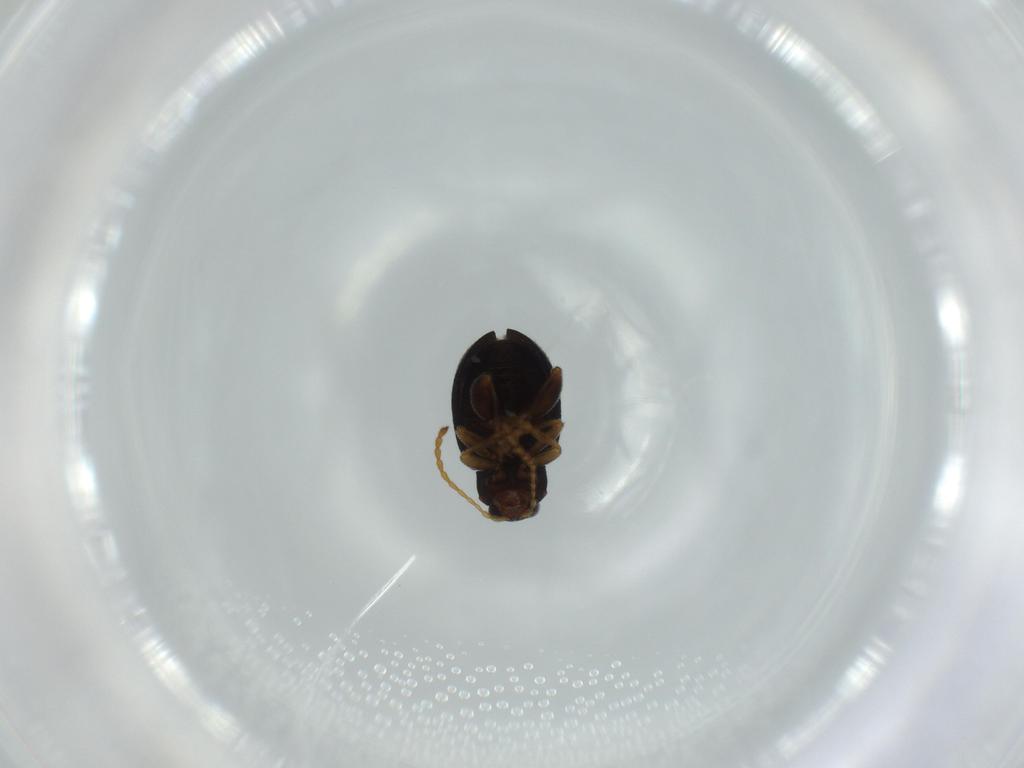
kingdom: Animalia
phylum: Arthropoda
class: Insecta
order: Coleoptera
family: Chrysomelidae
